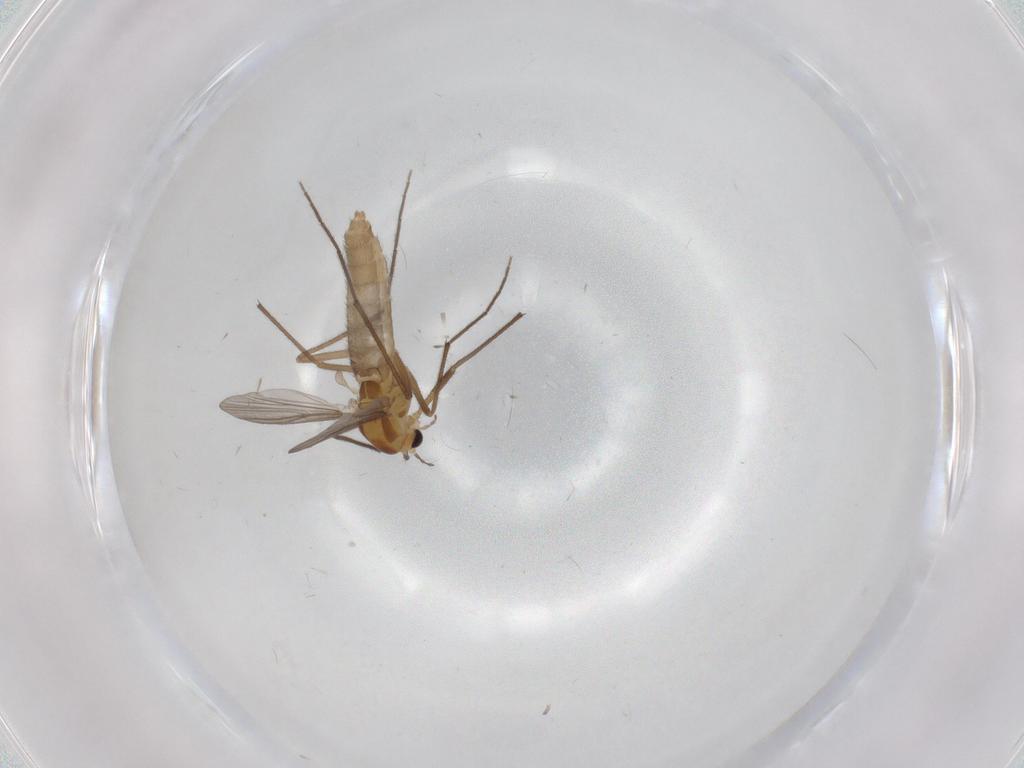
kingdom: Animalia
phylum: Arthropoda
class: Insecta
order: Diptera
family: Chironomidae
